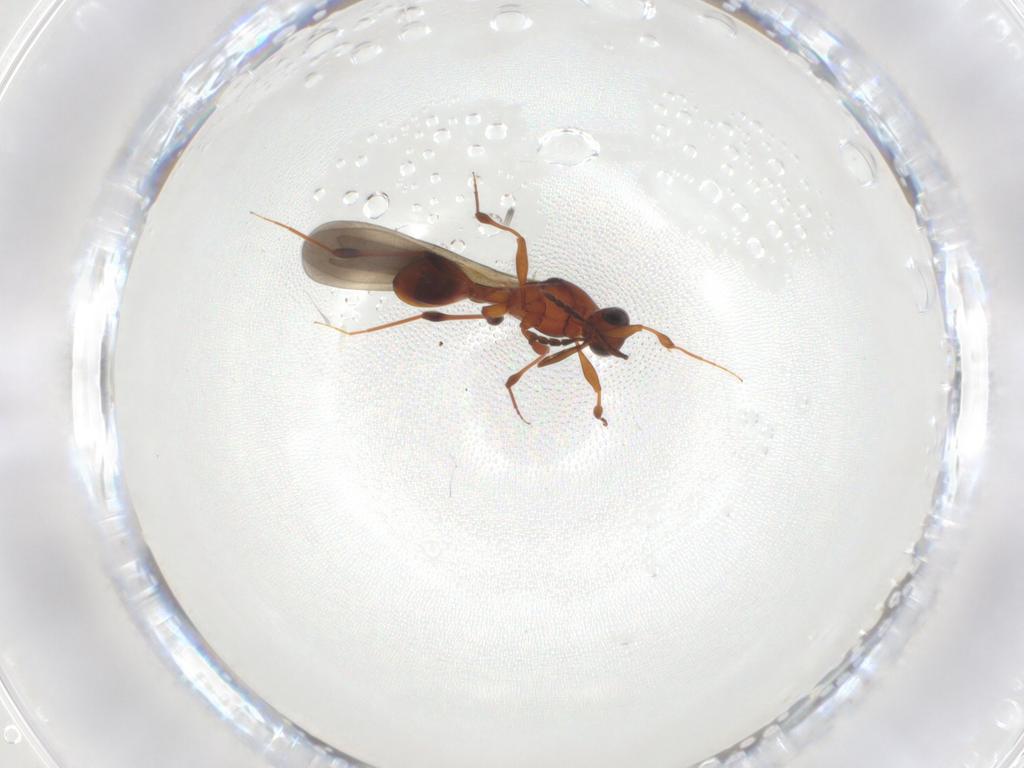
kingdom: Animalia
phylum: Arthropoda
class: Insecta
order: Hymenoptera
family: Platygastridae
